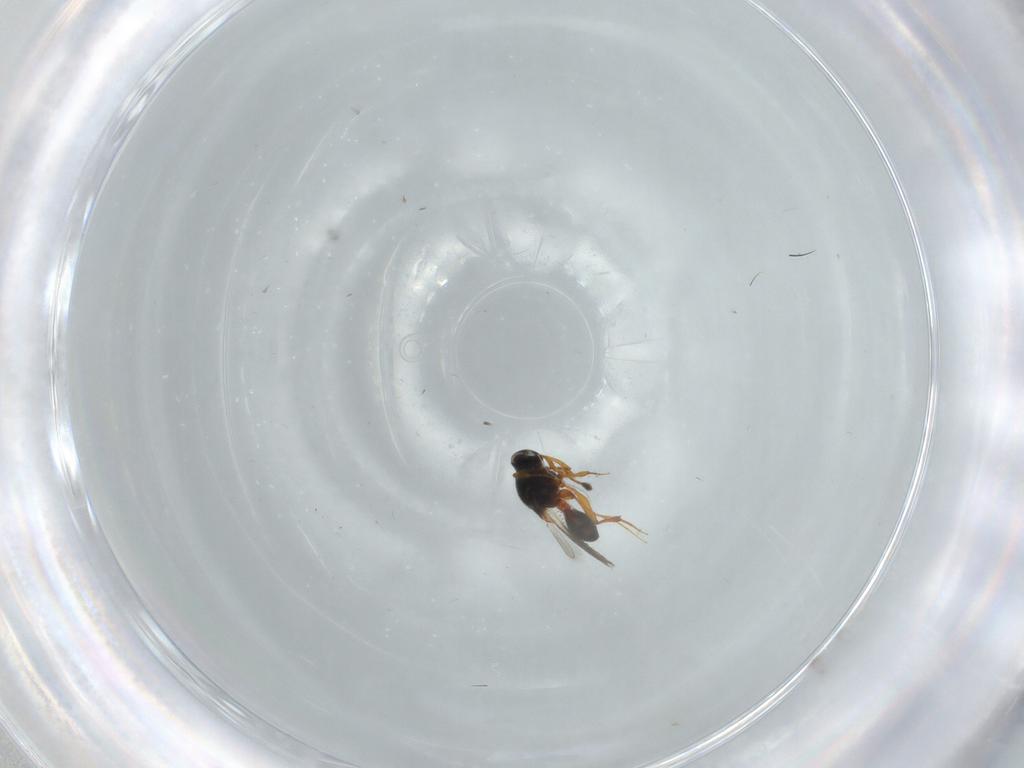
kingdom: Animalia
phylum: Arthropoda
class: Insecta
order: Hymenoptera
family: Platygastridae
